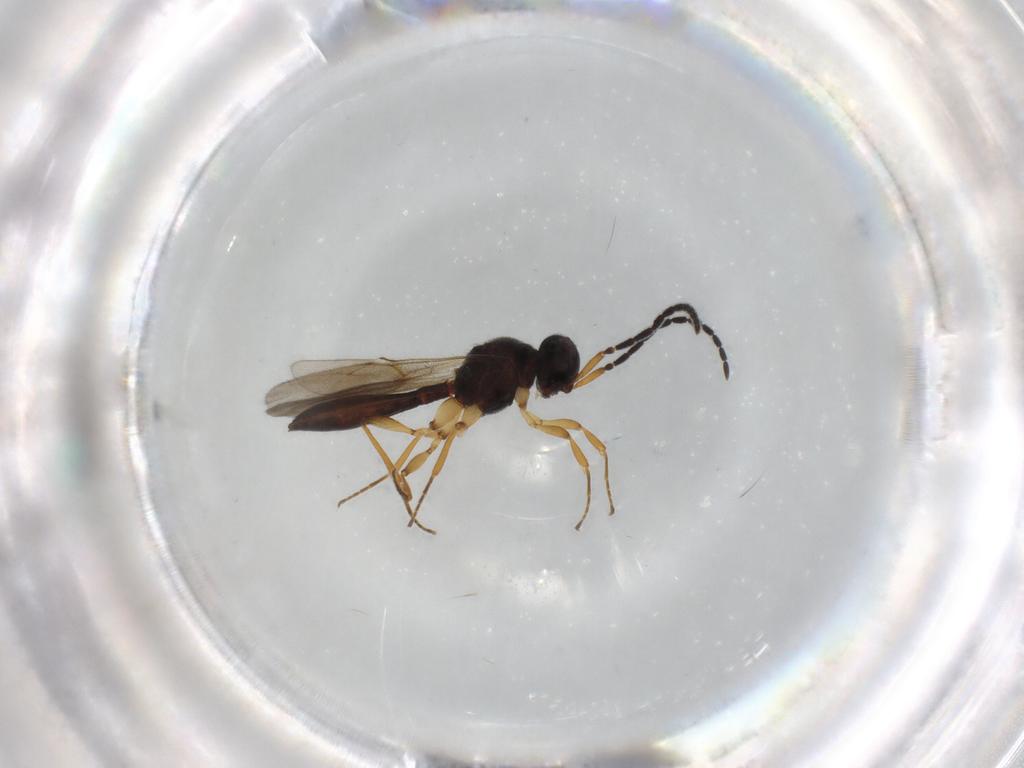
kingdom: Animalia
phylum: Arthropoda
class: Insecta
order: Hymenoptera
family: Scelionidae
